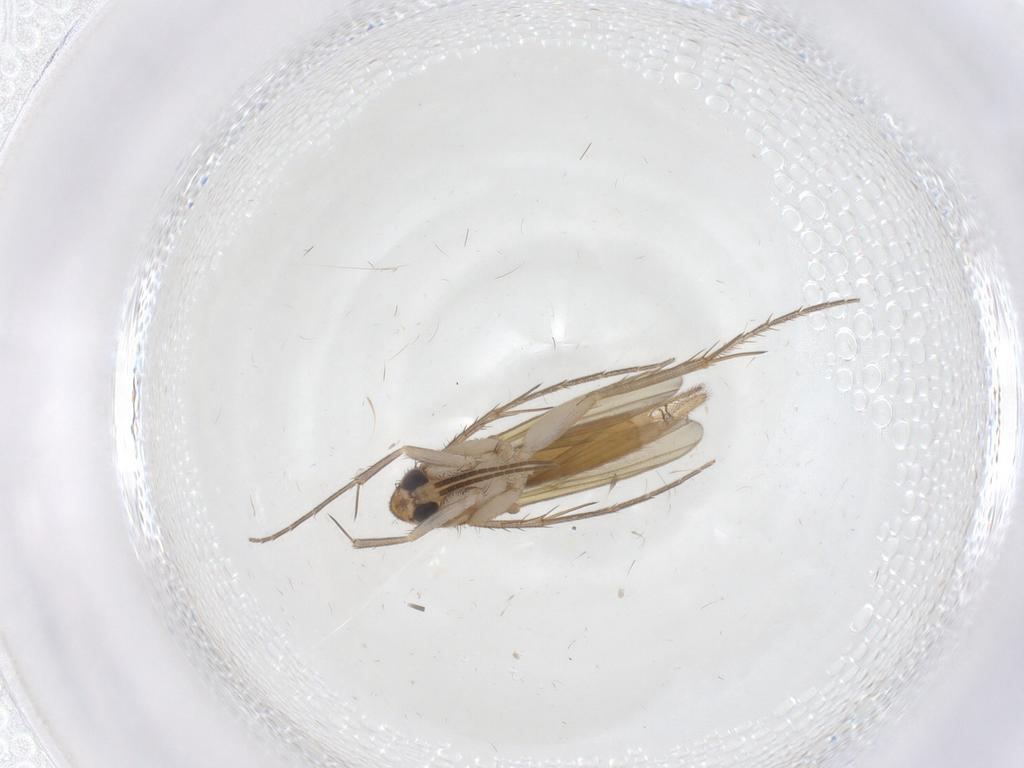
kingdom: Animalia
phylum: Arthropoda
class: Insecta
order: Diptera
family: Mycetophilidae
